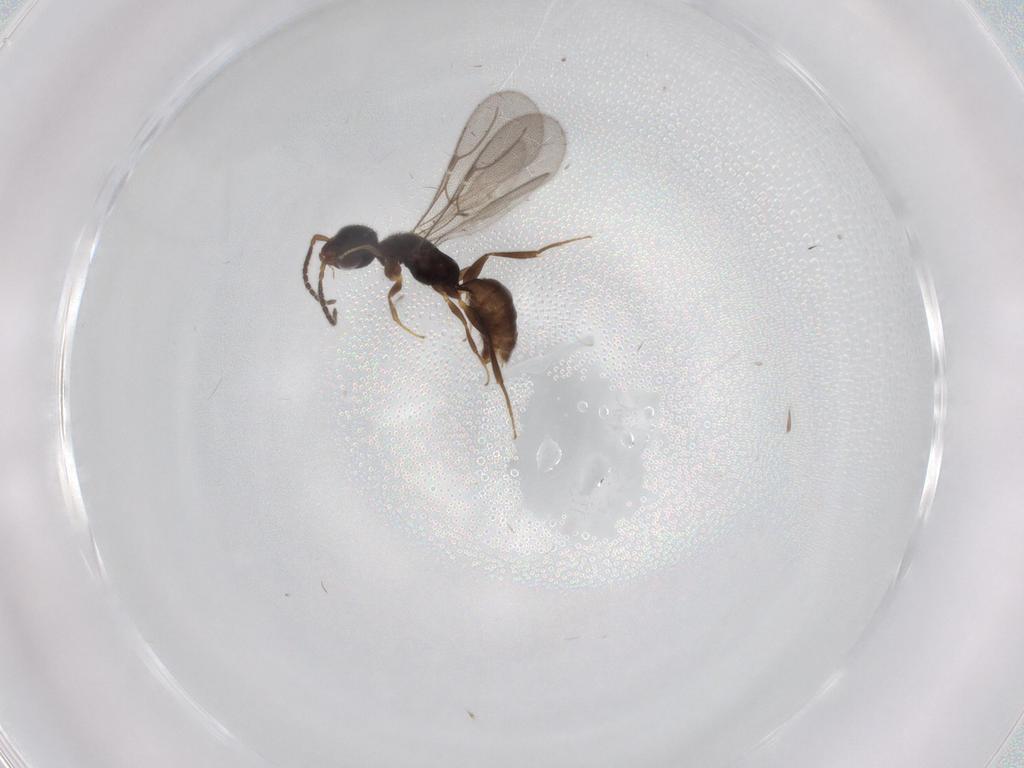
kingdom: Animalia
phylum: Arthropoda
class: Insecta
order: Hymenoptera
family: Bethylidae
